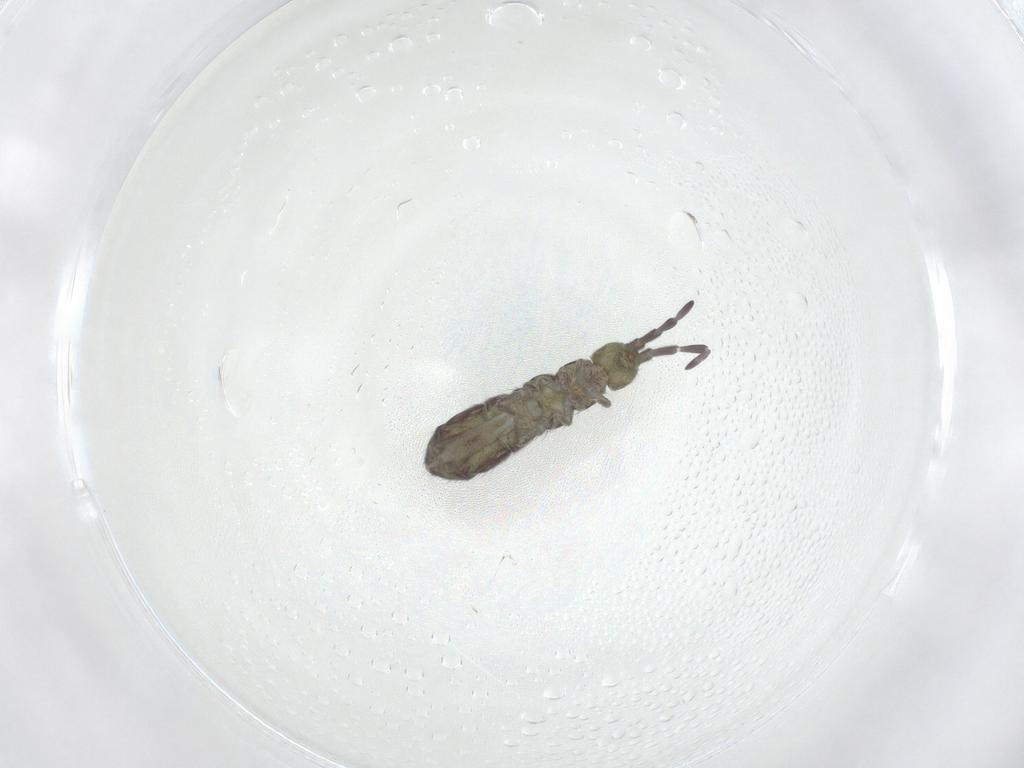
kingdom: Animalia
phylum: Arthropoda
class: Collembola
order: Entomobryomorpha
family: Isotomidae
